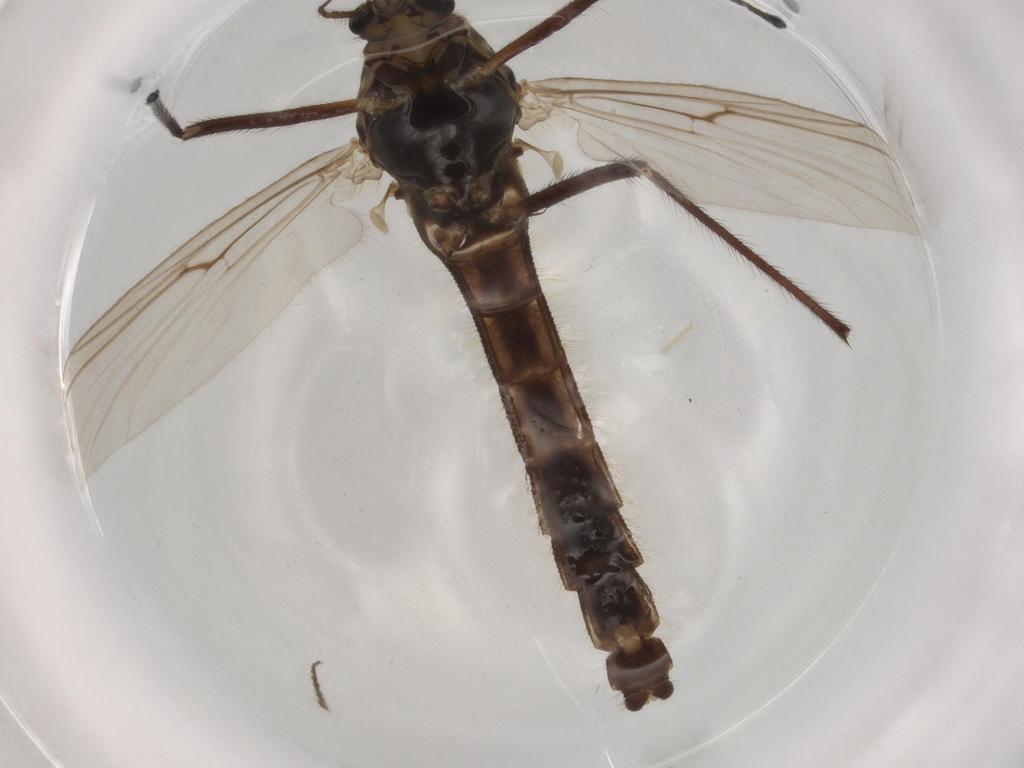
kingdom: Animalia
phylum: Arthropoda
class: Insecta
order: Diptera
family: Hybotidae
